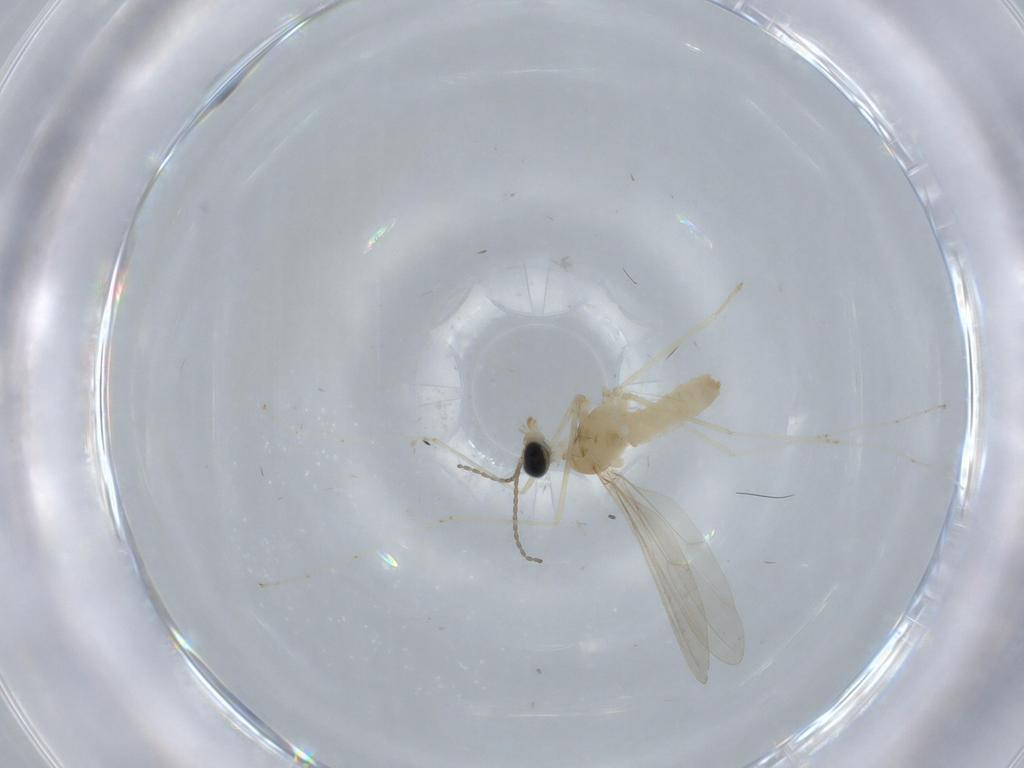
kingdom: Animalia
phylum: Arthropoda
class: Insecta
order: Diptera
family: Cecidomyiidae
